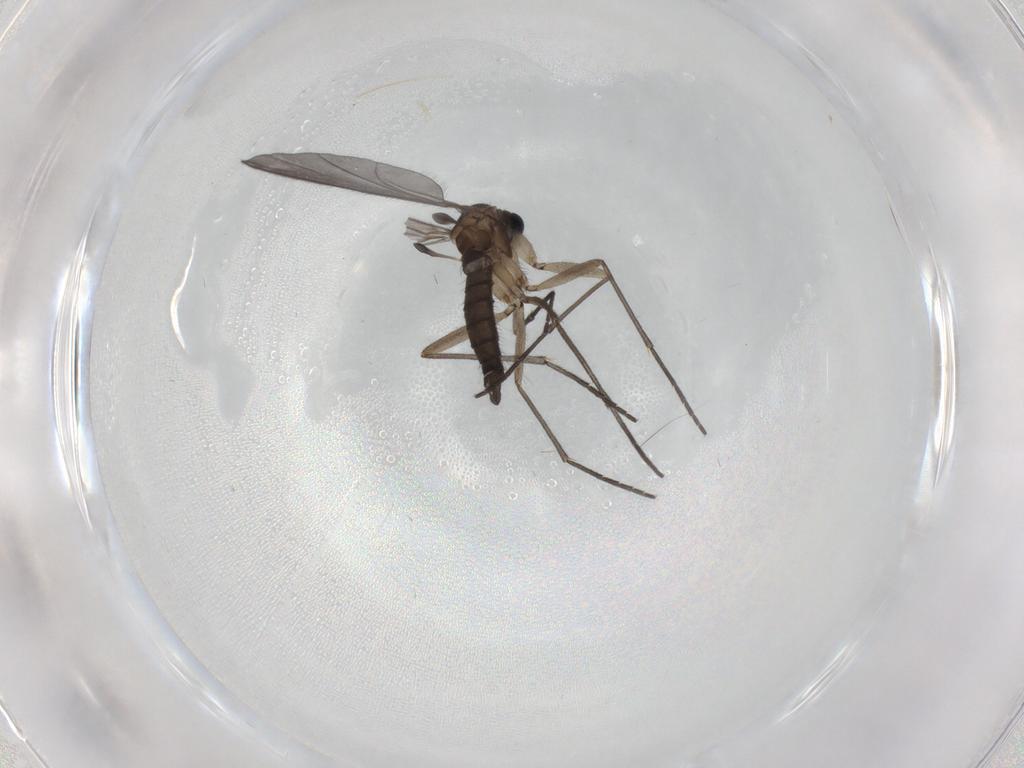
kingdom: Animalia
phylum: Arthropoda
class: Insecta
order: Diptera
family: Sciaridae
